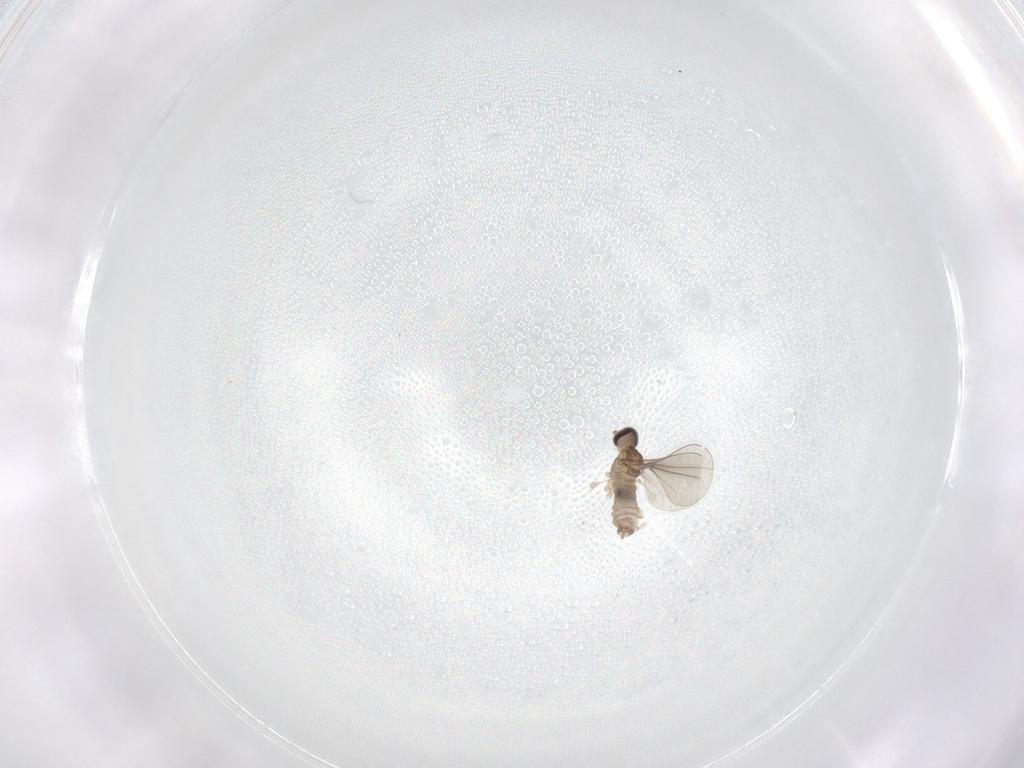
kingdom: Animalia
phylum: Arthropoda
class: Insecta
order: Diptera
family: Cecidomyiidae
